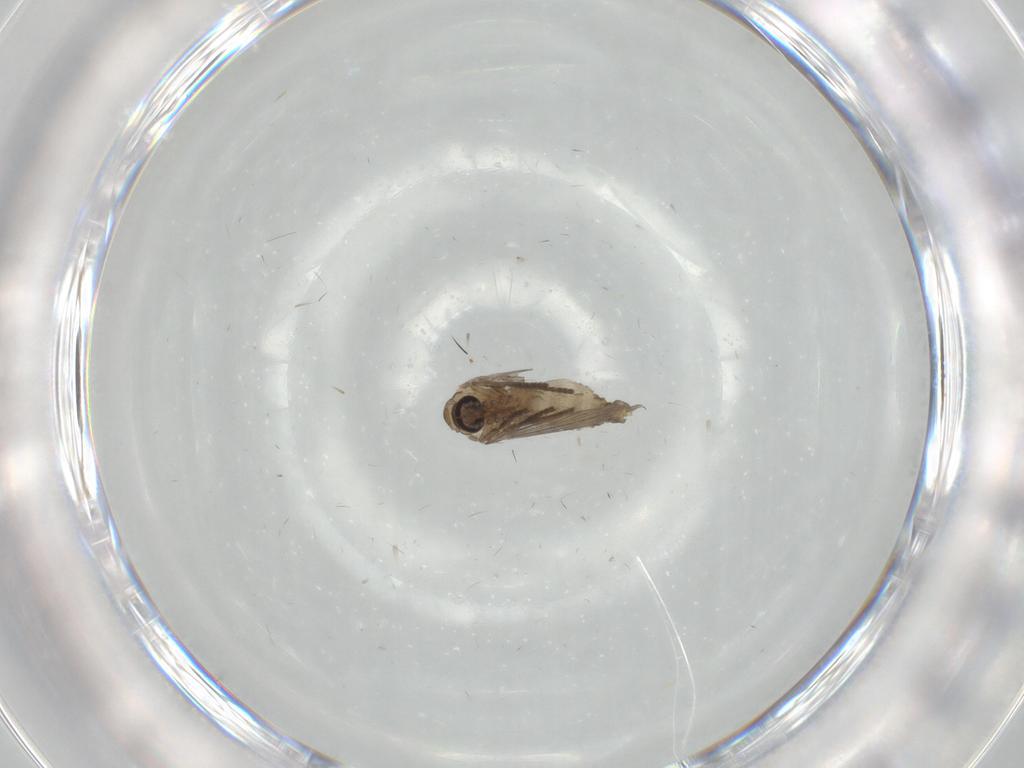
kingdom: Animalia
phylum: Arthropoda
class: Insecta
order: Diptera
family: Psychodidae
